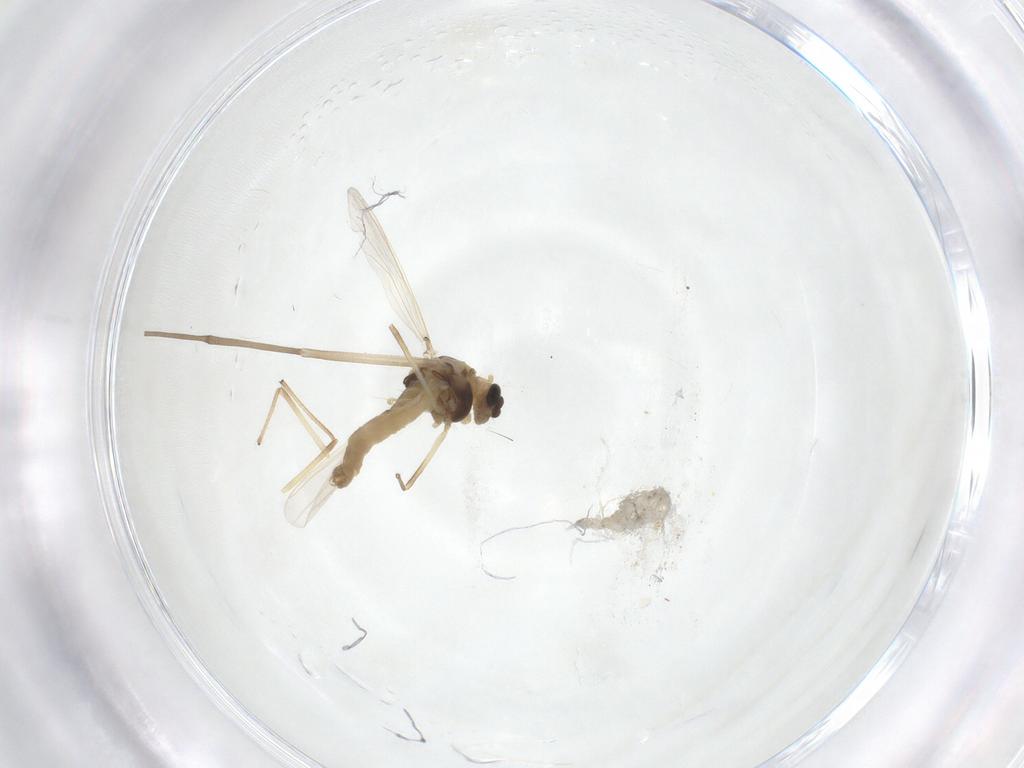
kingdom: Animalia
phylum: Arthropoda
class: Insecta
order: Diptera
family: Chironomidae
